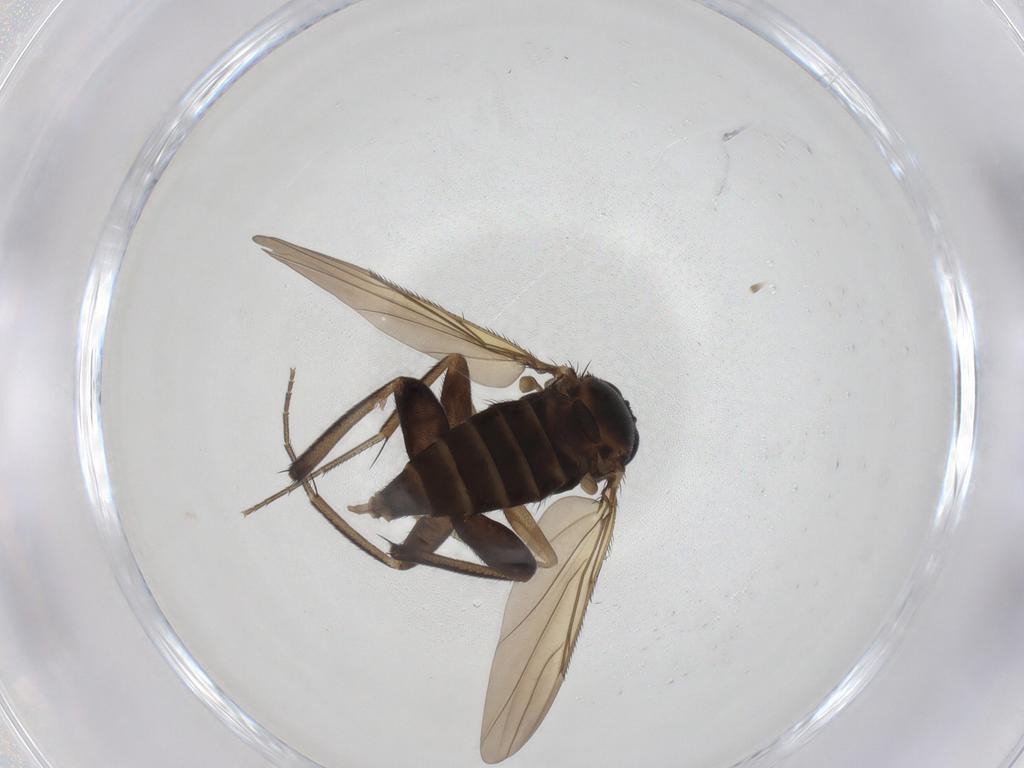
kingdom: Animalia
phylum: Arthropoda
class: Insecta
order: Diptera
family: Phoridae
